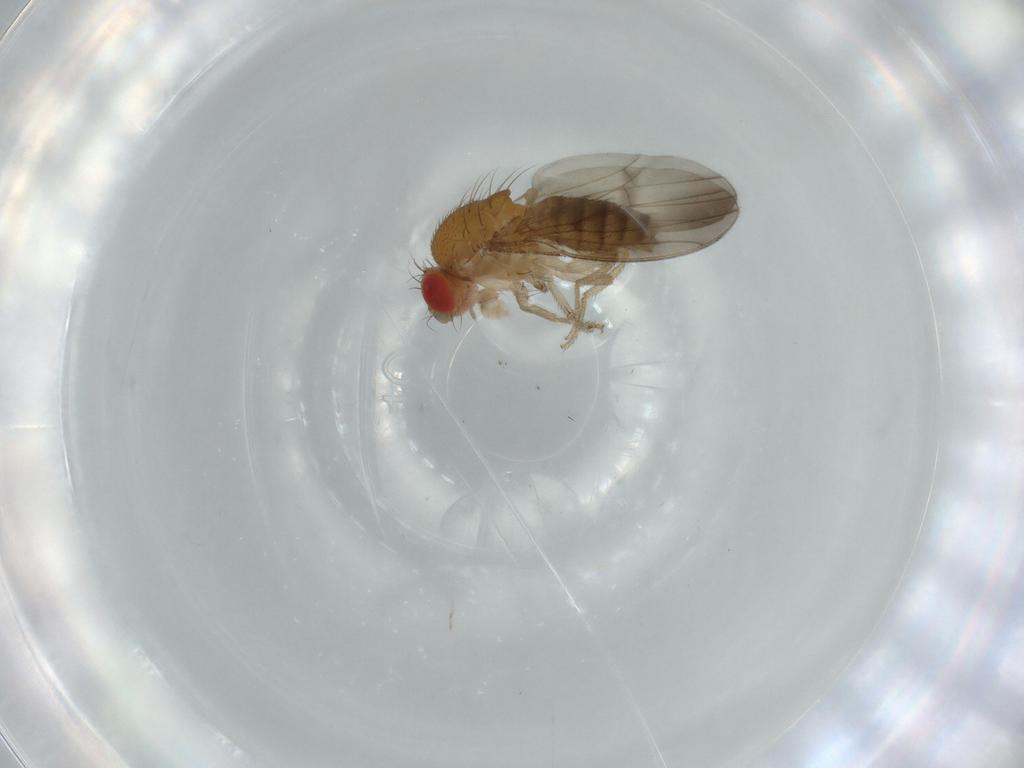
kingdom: Animalia
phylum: Arthropoda
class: Insecta
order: Diptera
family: Drosophilidae
